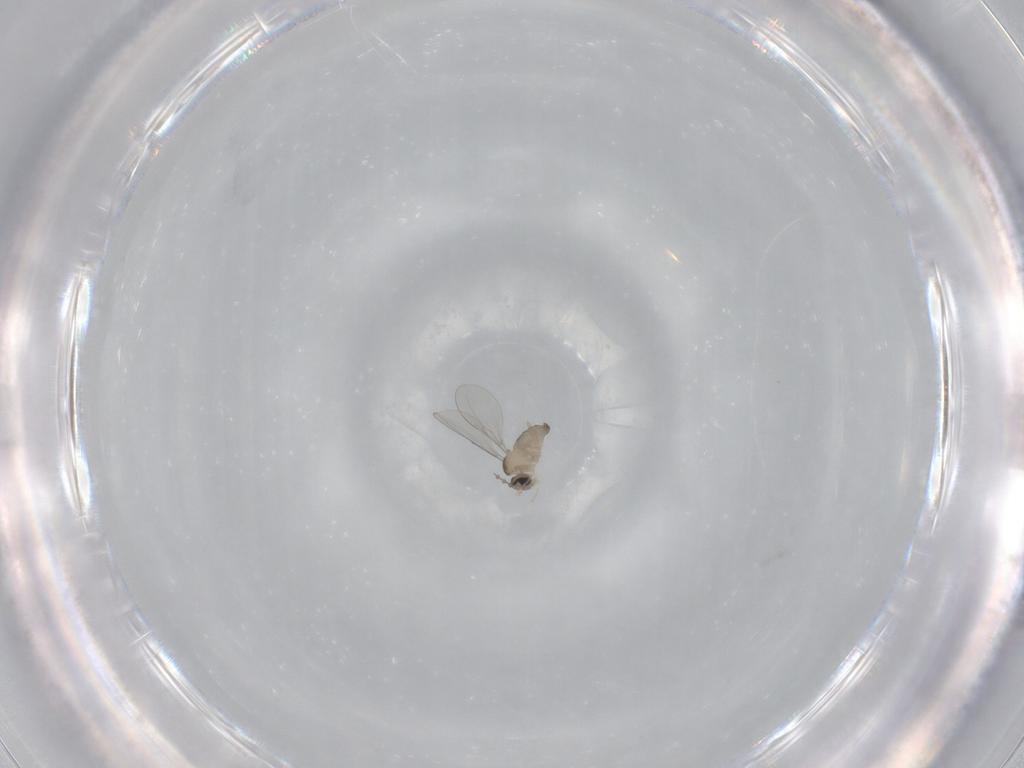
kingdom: Animalia
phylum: Arthropoda
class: Insecta
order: Diptera
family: Cecidomyiidae
